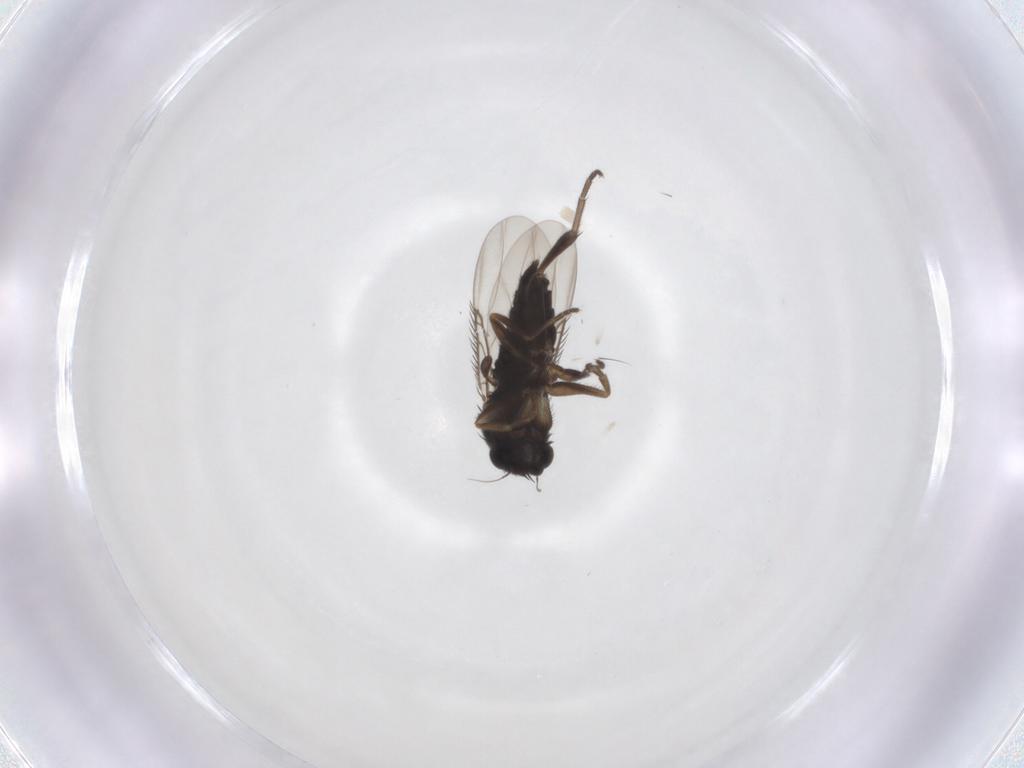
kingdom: Animalia
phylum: Arthropoda
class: Insecta
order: Diptera
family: Phoridae
